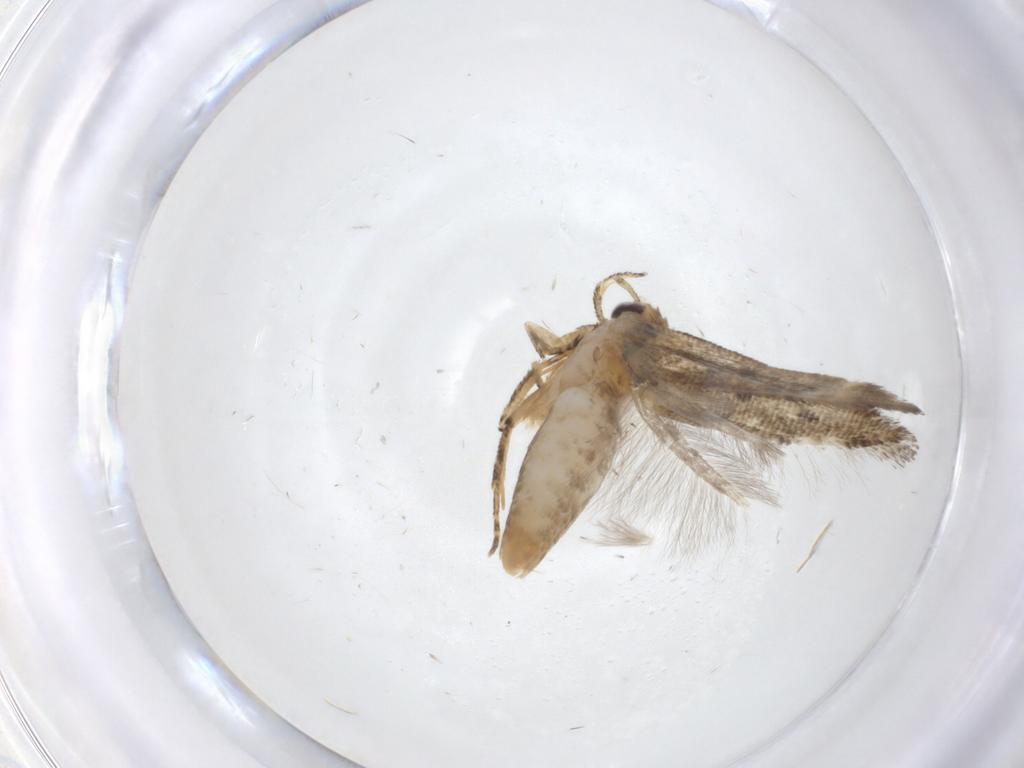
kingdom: Animalia
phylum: Arthropoda
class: Insecta
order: Lepidoptera
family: Gelechiidae
